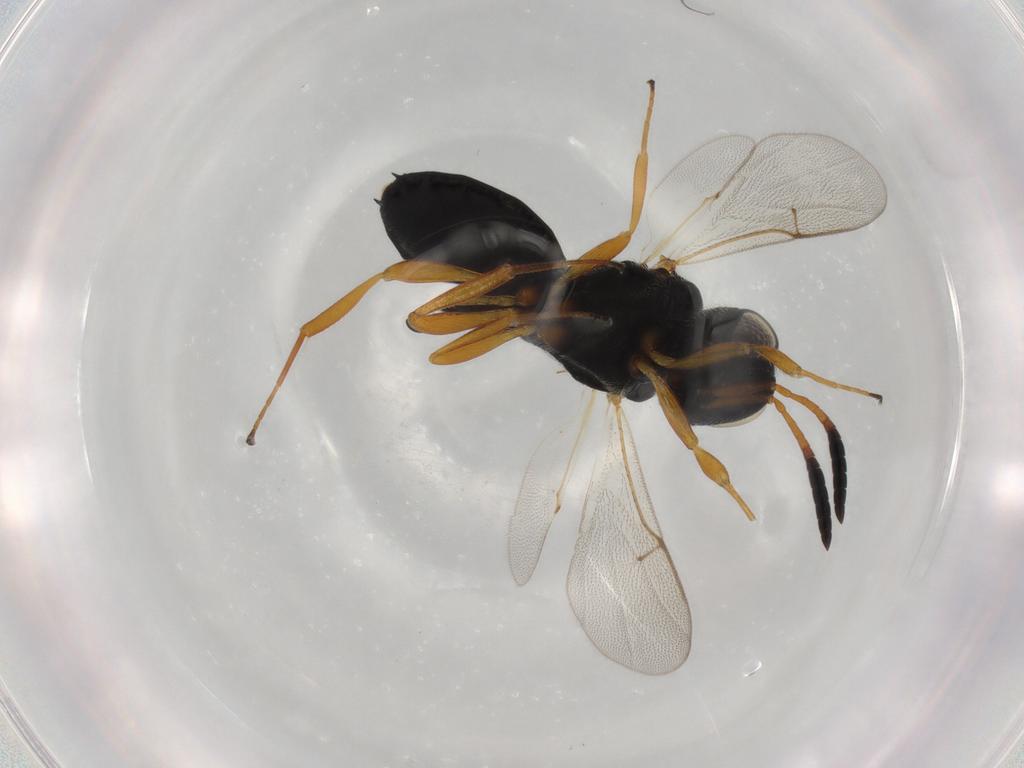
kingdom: Animalia
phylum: Arthropoda
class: Insecta
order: Hymenoptera
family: Scelionidae
